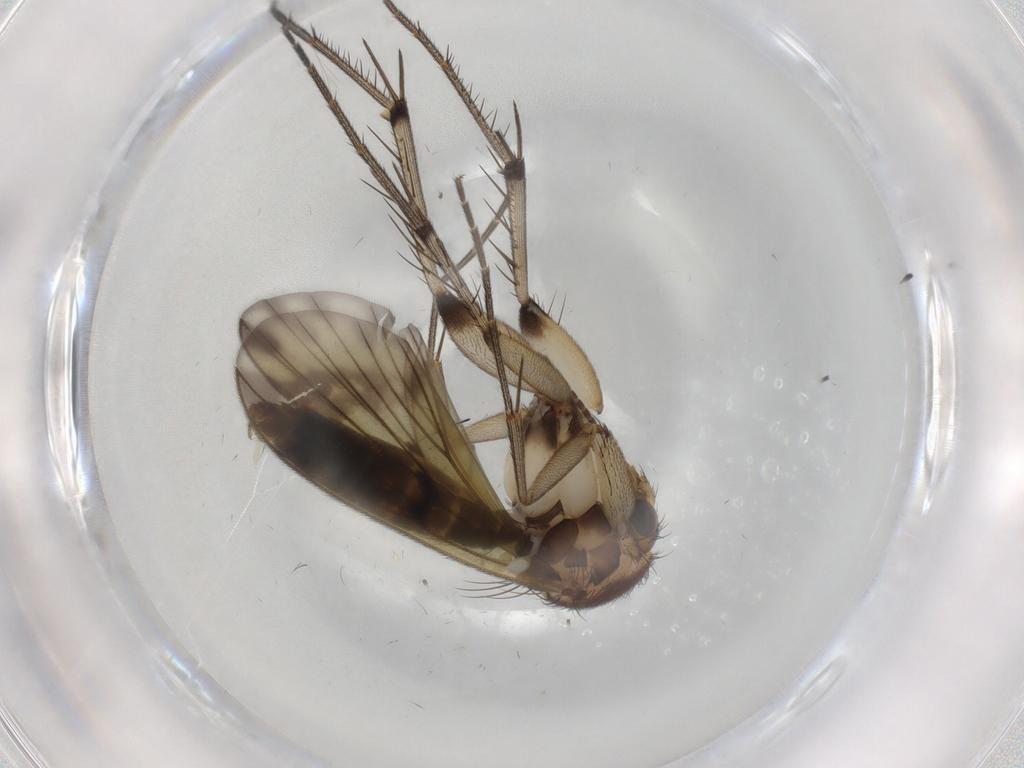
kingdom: Animalia
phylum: Arthropoda
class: Insecta
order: Diptera
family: Phoridae
